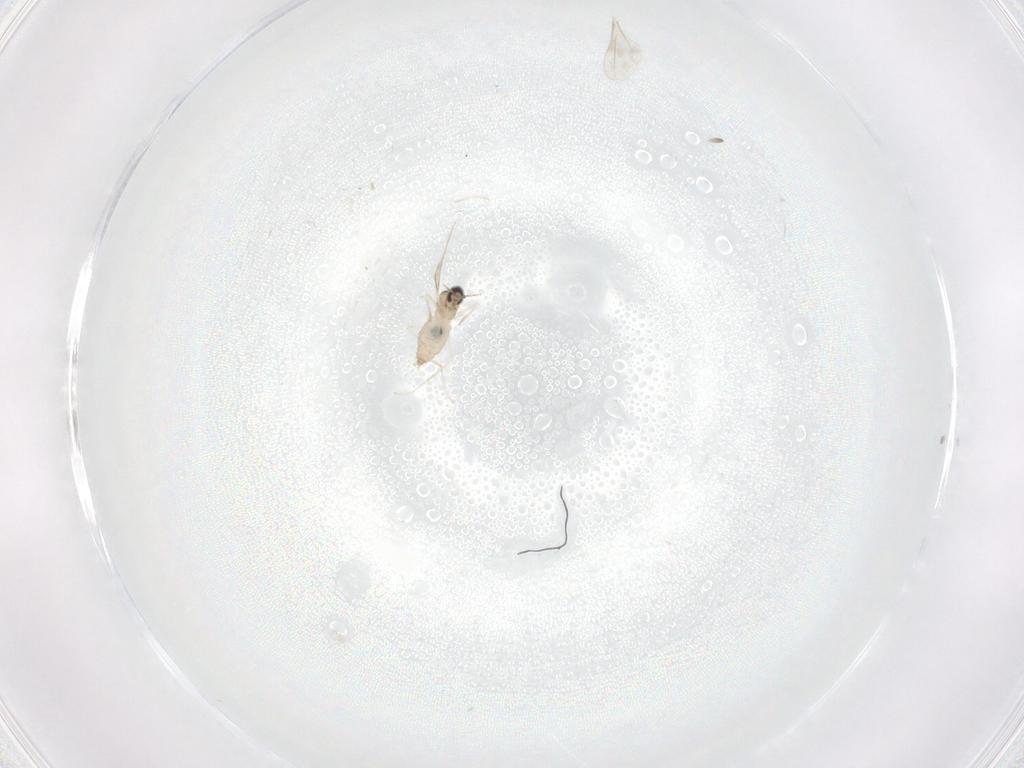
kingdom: Animalia
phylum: Arthropoda
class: Insecta
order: Diptera
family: Cecidomyiidae
